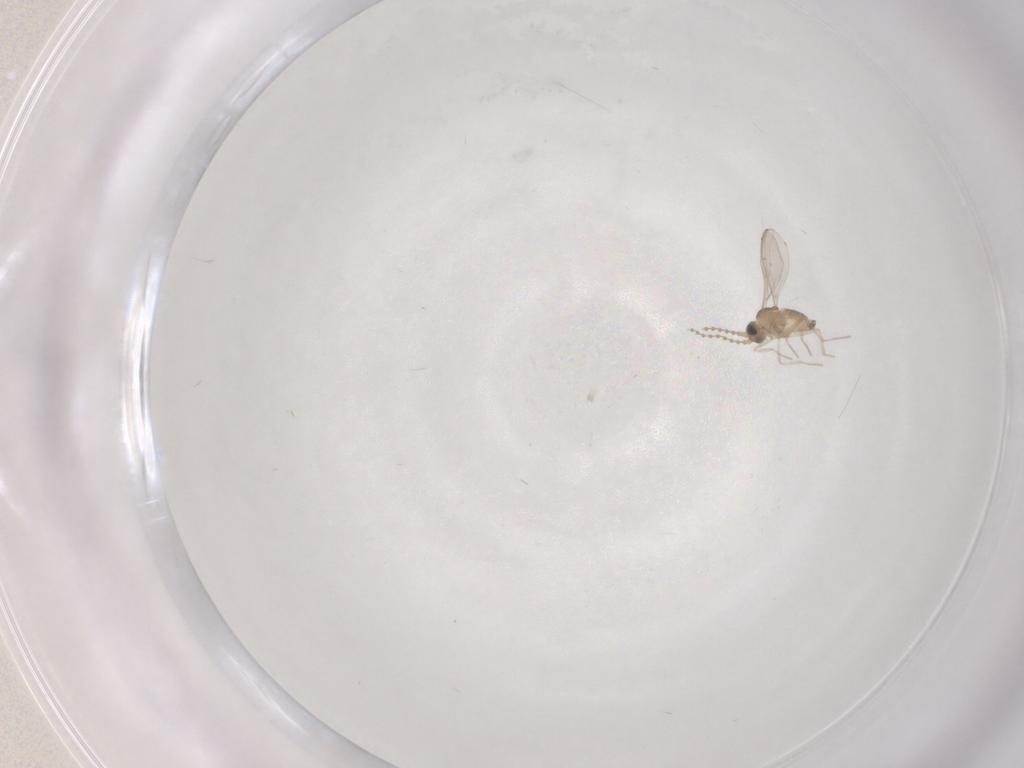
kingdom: Animalia
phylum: Arthropoda
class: Insecta
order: Diptera
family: Cecidomyiidae
